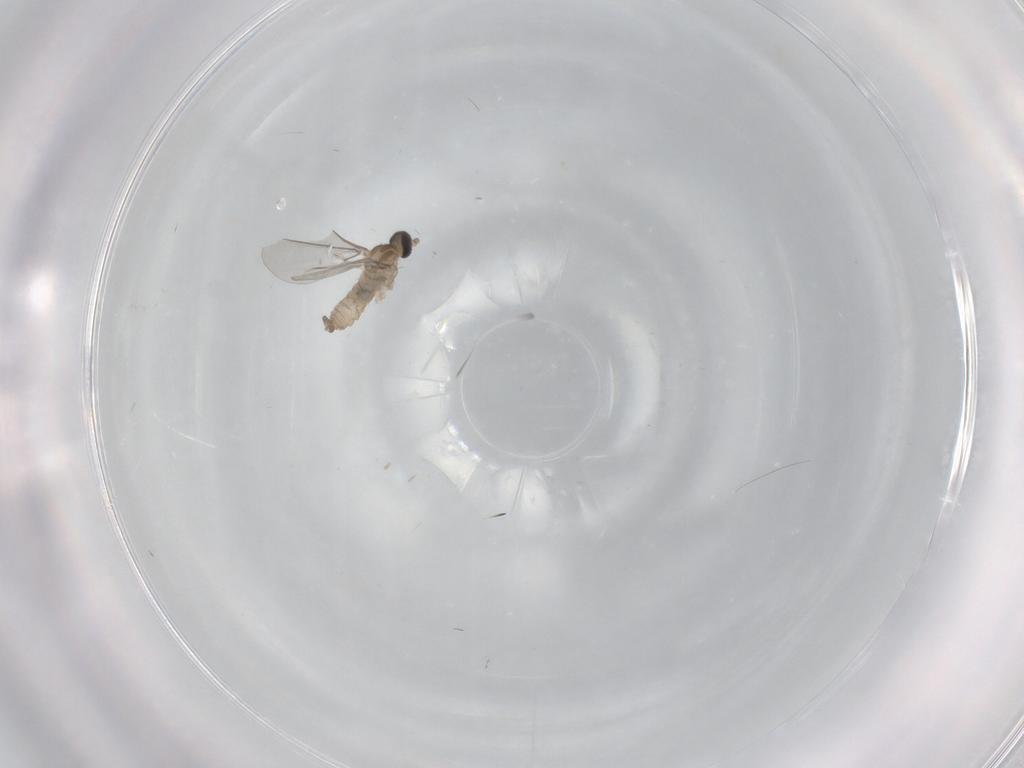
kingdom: Animalia
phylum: Arthropoda
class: Insecta
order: Diptera
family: Cecidomyiidae
